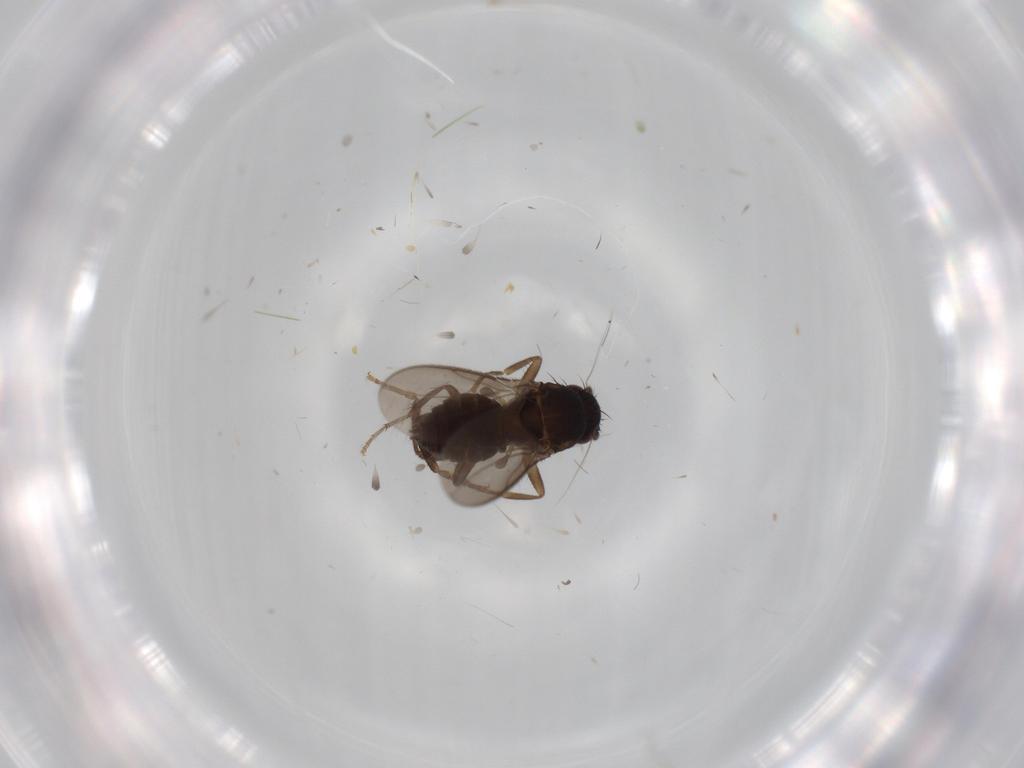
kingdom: Animalia
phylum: Arthropoda
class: Insecta
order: Diptera
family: Sphaeroceridae
